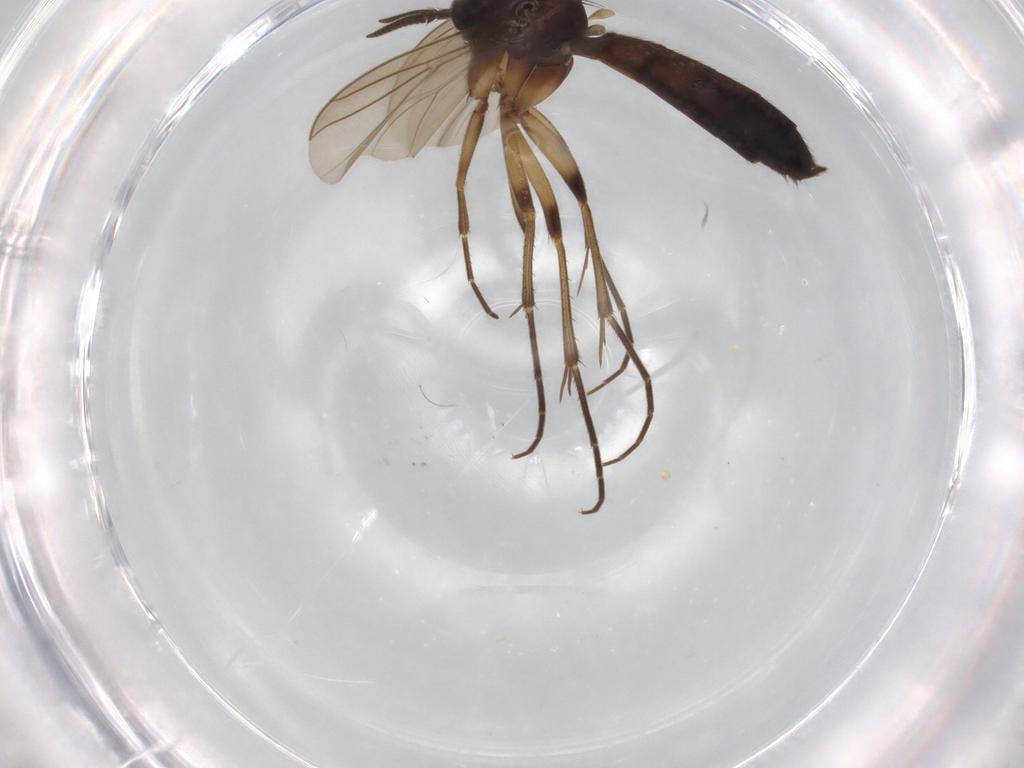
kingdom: Animalia
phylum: Arthropoda
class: Insecta
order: Diptera
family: Mycetophilidae
